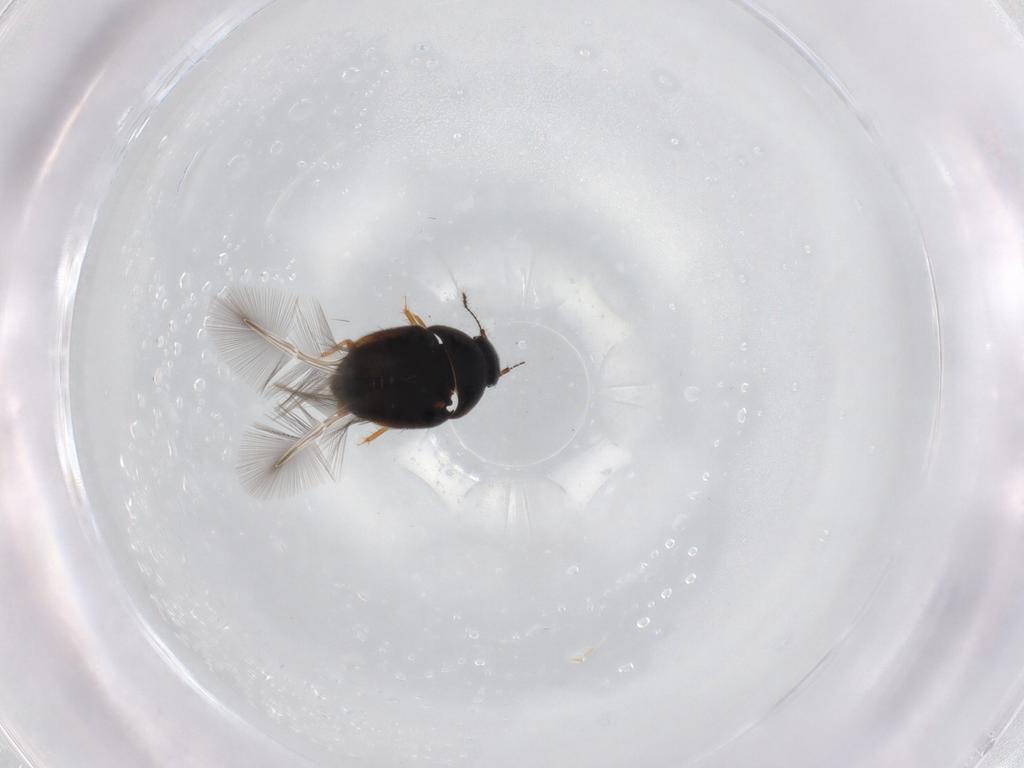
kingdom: Animalia
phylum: Arthropoda
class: Insecta
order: Coleoptera
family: Ptiliidae
